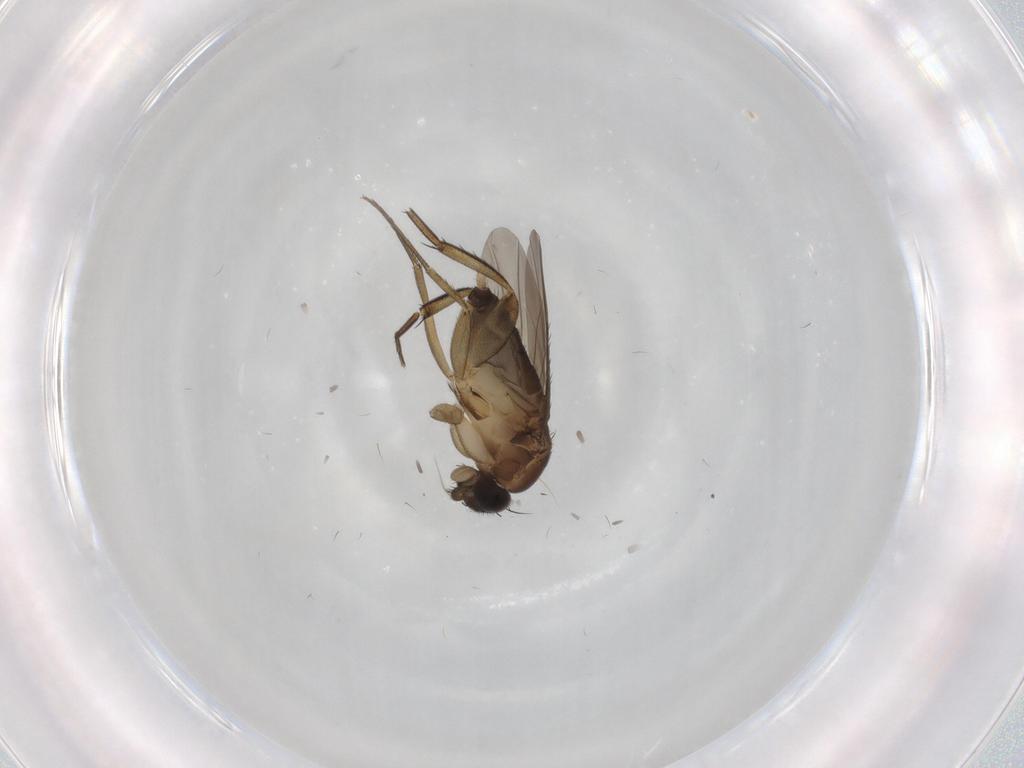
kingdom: Animalia
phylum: Arthropoda
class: Insecta
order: Diptera
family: Phoridae
